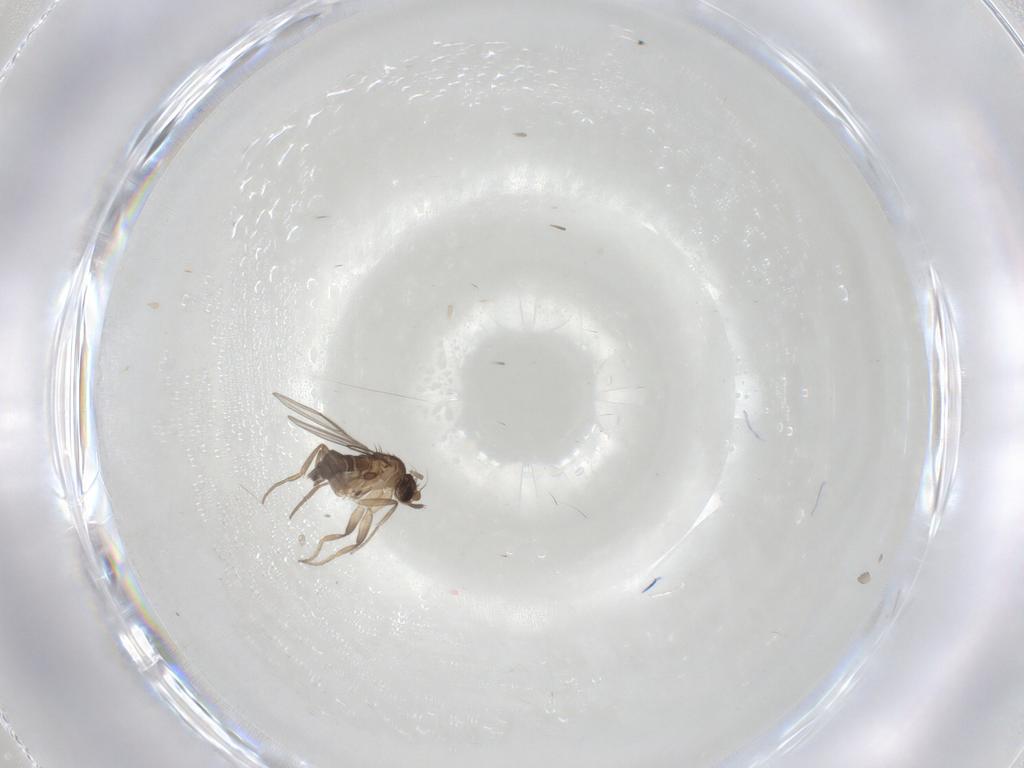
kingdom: Animalia
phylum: Arthropoda
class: Insecta
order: Diptera
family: Phoridae
